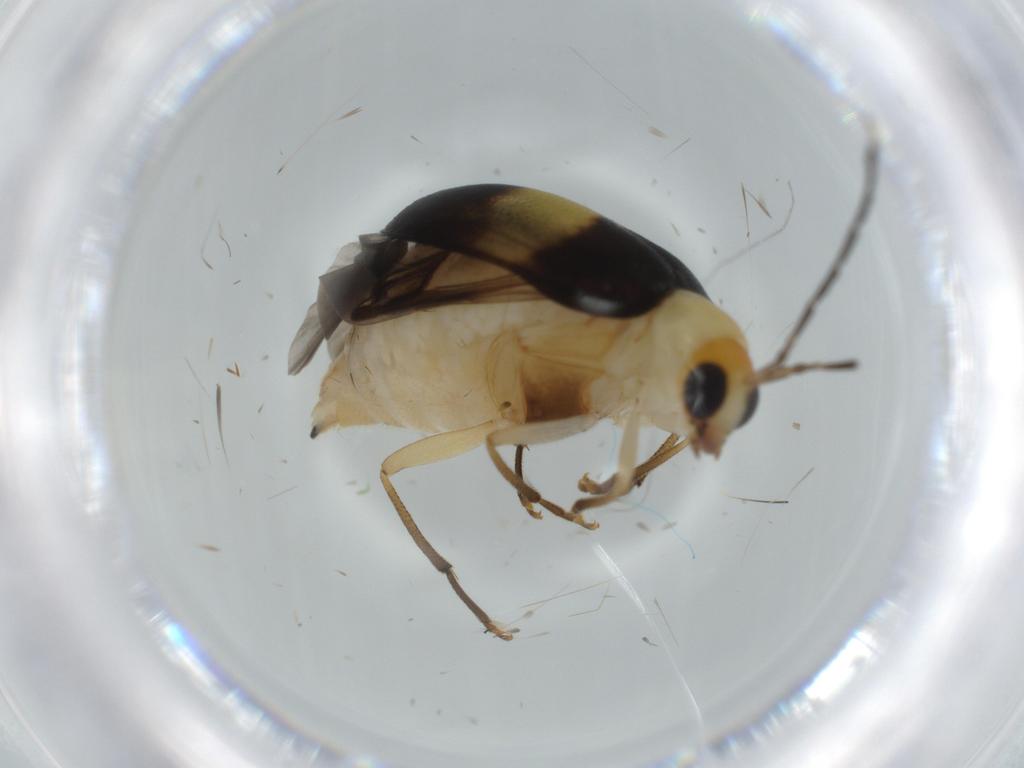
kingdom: Animalia
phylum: Arthropoda
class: Insecta
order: Coleoptera
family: Chrysomelidae
